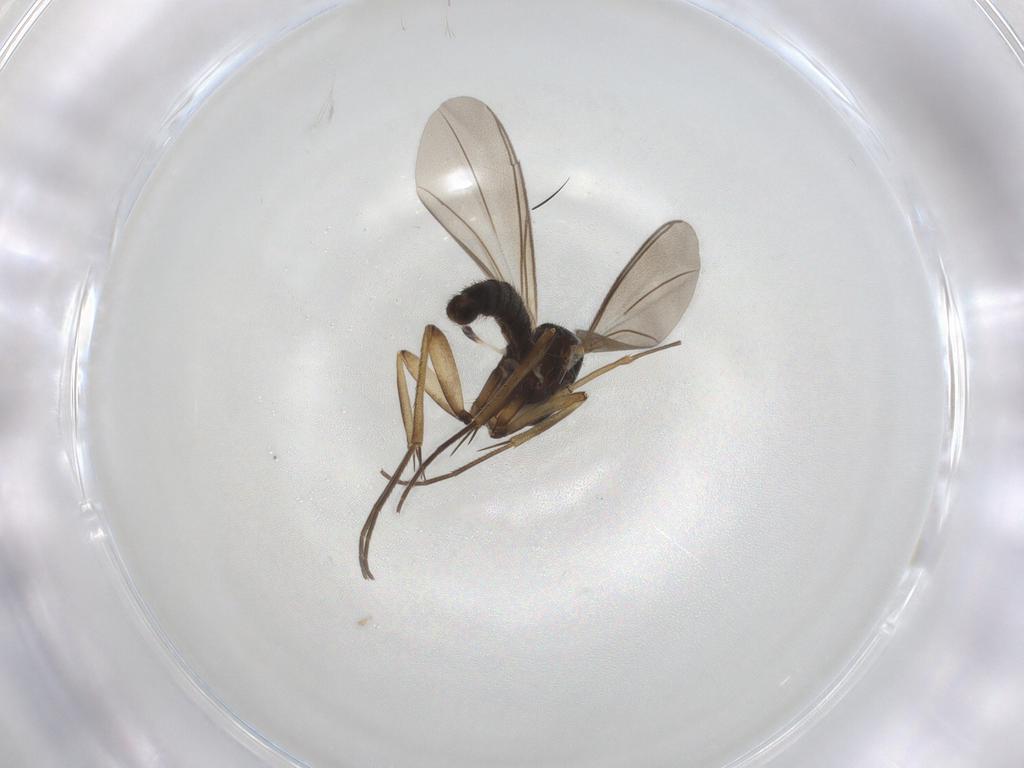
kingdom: Animalia
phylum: Arthropoda
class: Insecta
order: Diptera
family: Mycetophilidae
